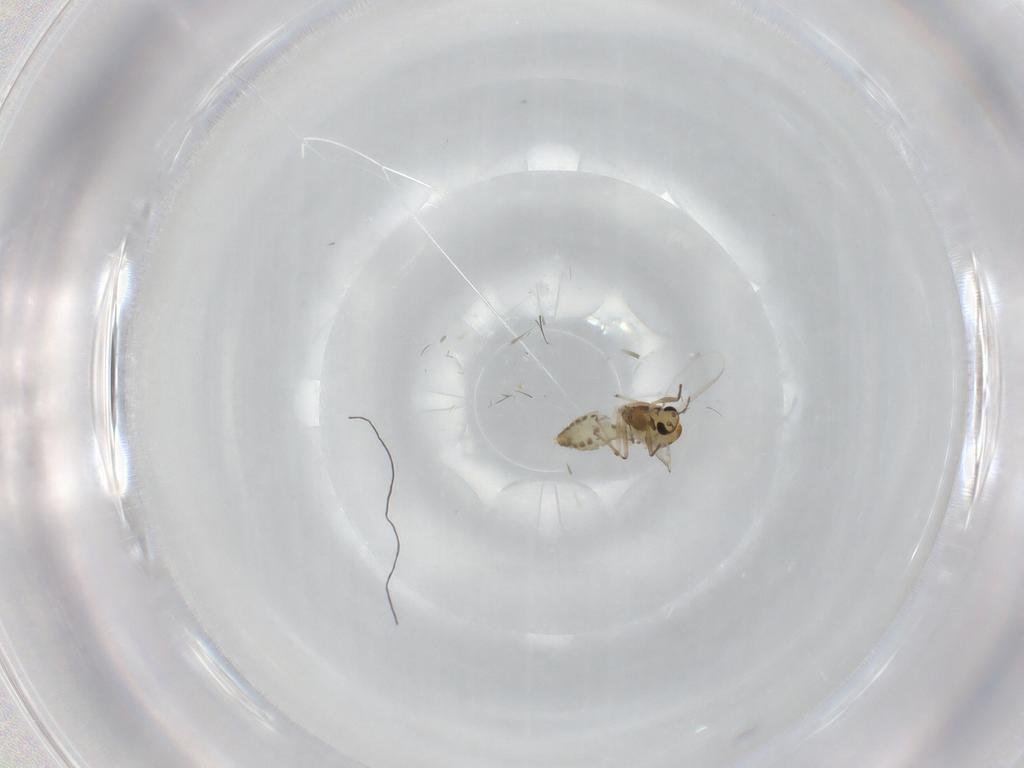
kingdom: Animalia
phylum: Arthropoda
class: Insecta
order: Diptera
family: Chironomidae
